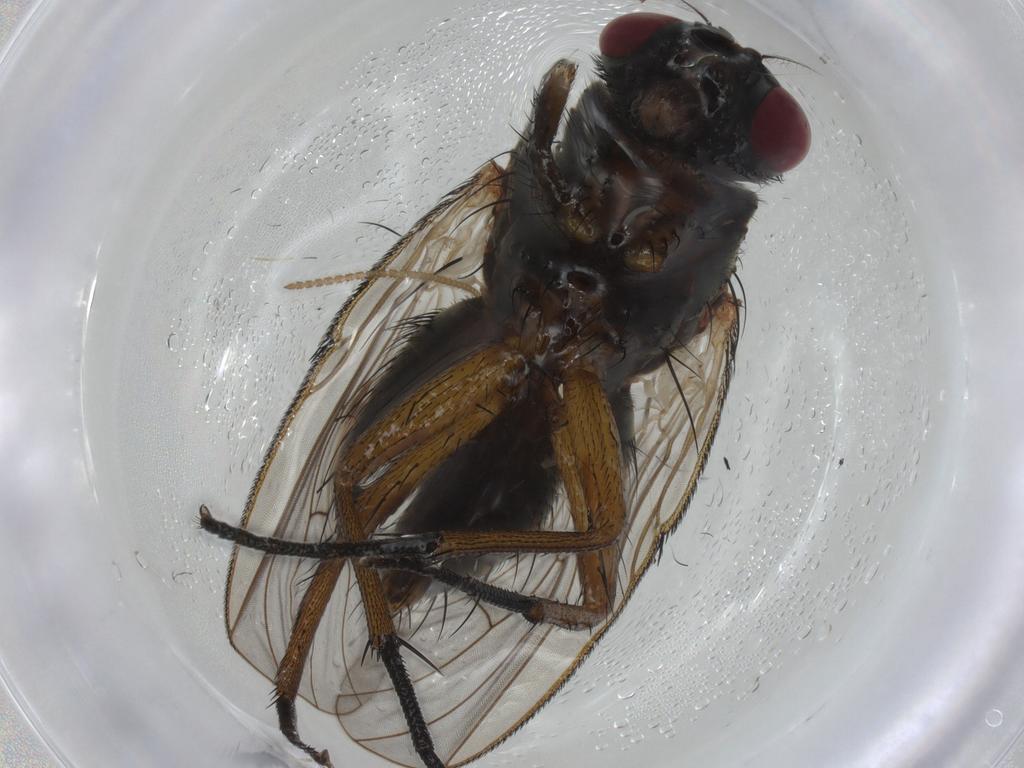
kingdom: Animalia
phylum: Arthropoda
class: Insecta
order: Diptera
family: Muscidae
